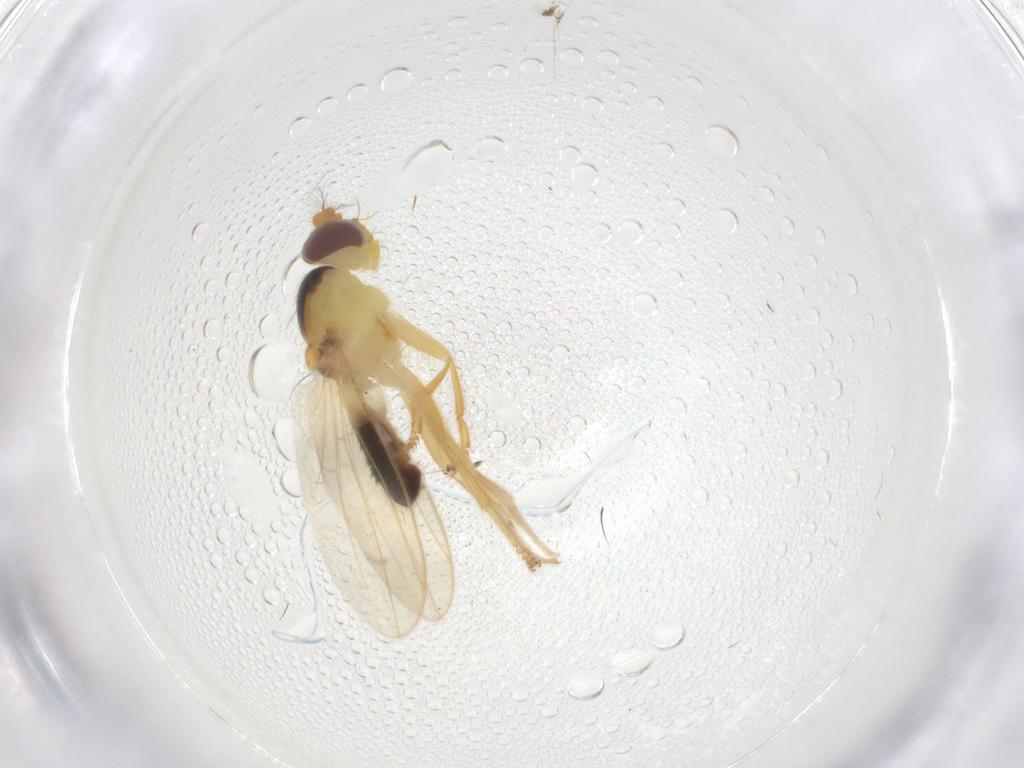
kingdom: Animalia
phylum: Arthropoda
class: Insecta
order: Diptera
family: Periscelididae
